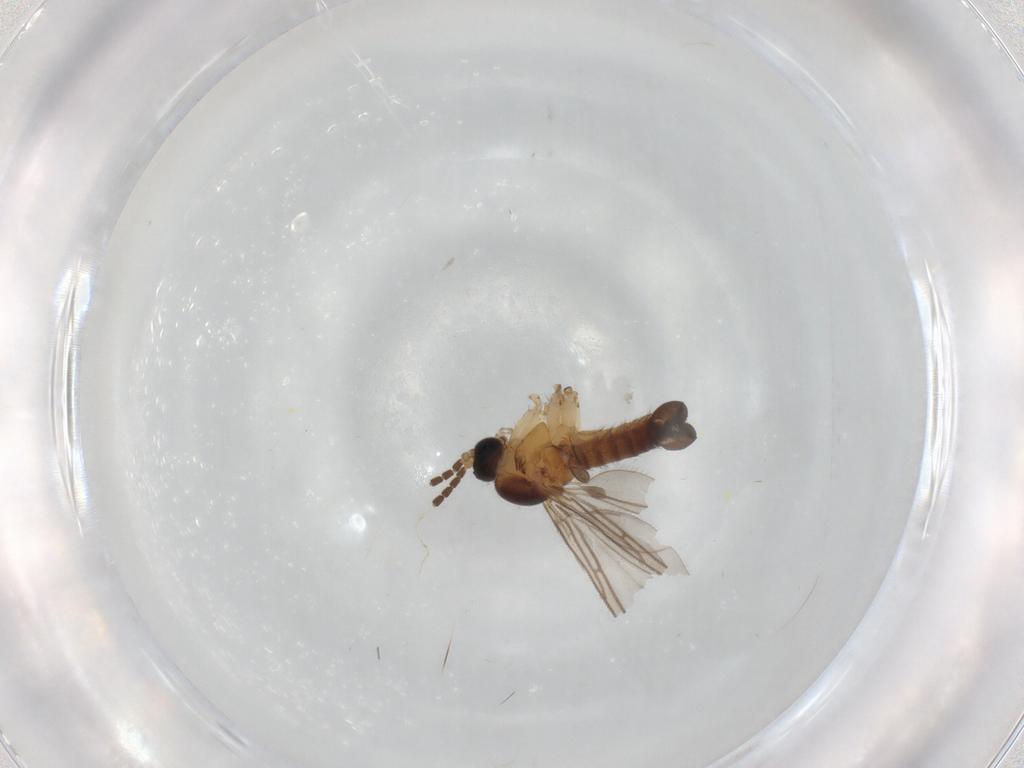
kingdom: Animalia
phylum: Arthropoda
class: Insecta
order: Diptera
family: Sciaridae
